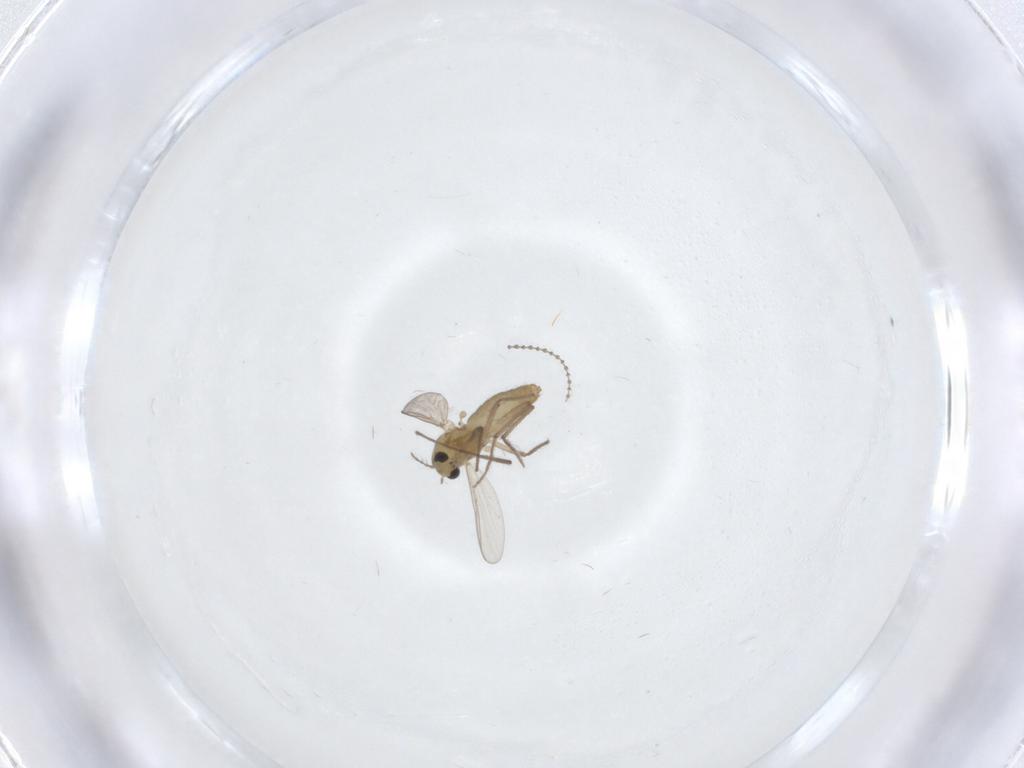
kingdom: Animalia
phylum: Arthropoda
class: Insecta
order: Diptera
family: Chironomidae
